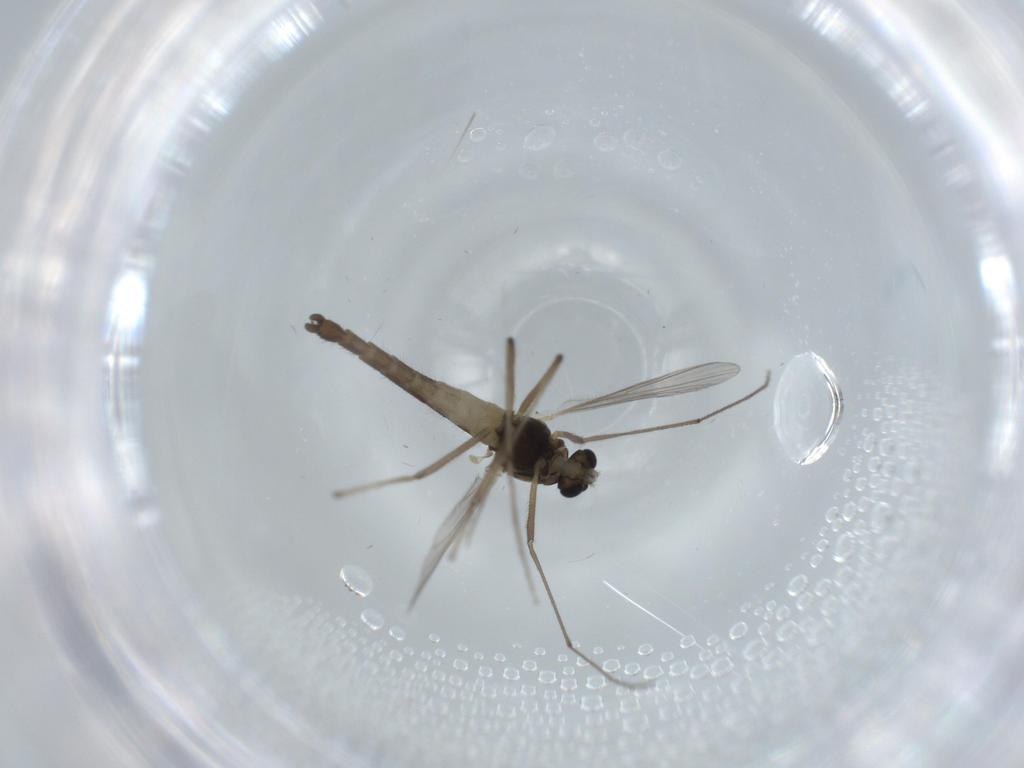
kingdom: Animalia
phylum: Arthropoda
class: Insecta
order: Diptera
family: Chironomidae
